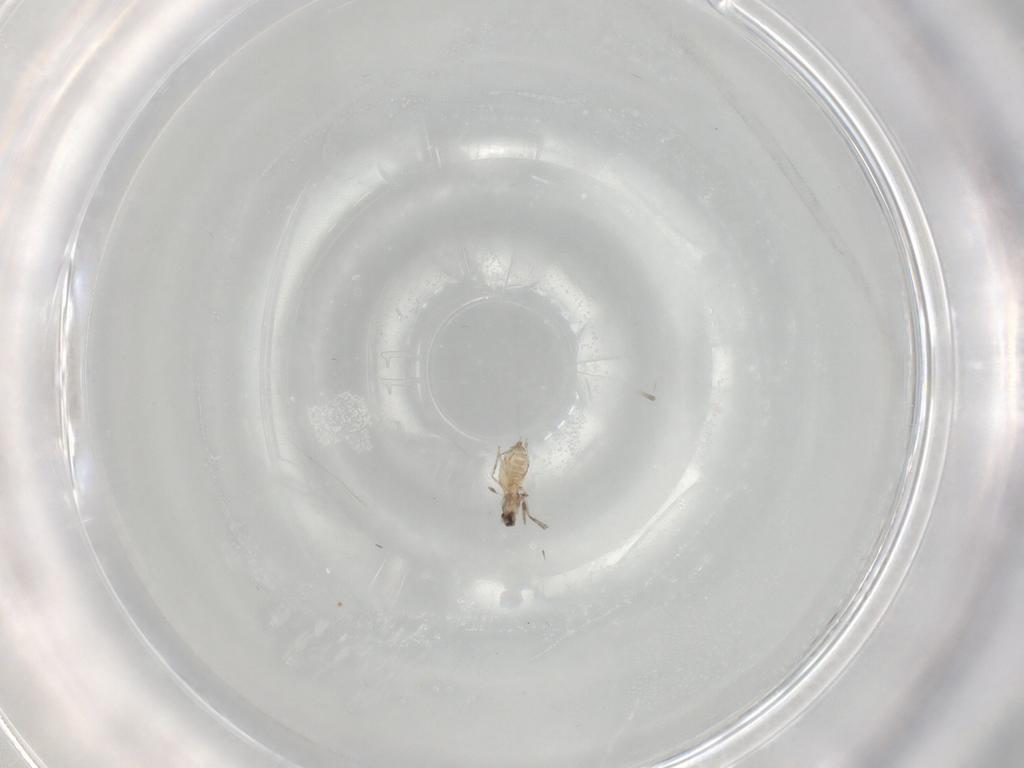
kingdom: Animalia
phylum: Arthropoda
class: Insecta
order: Diptera
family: Cecidomyiidae
